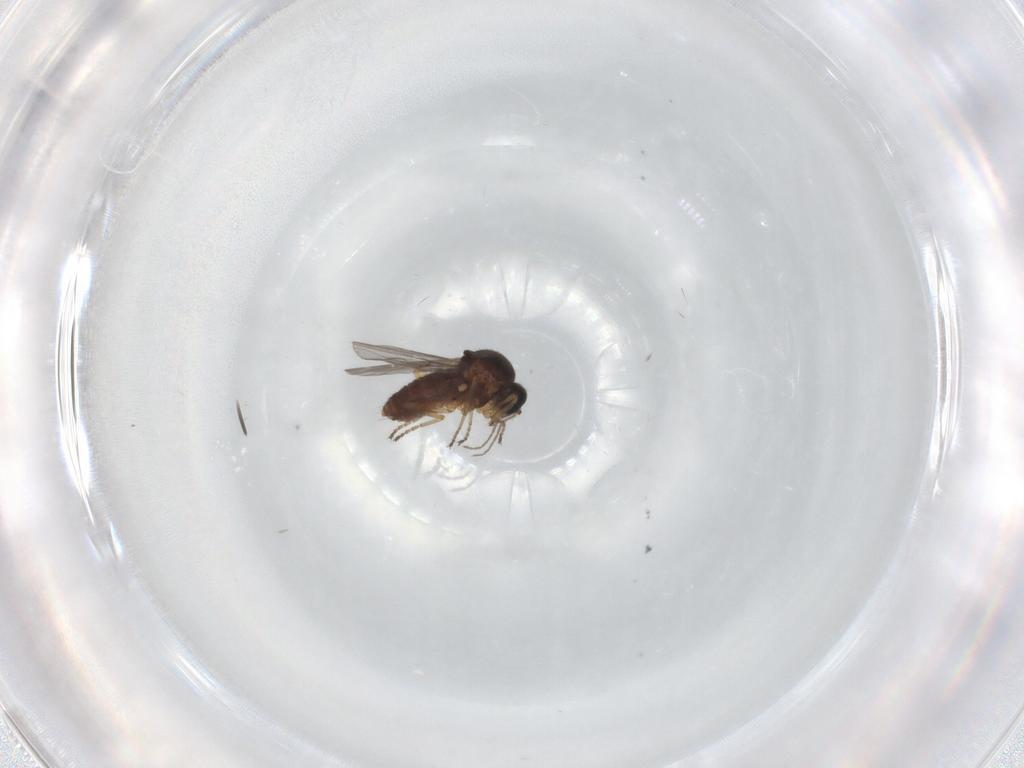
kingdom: Animalia
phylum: Arthropoda
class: Insecta
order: Diptera
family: Ceratopogonidae
